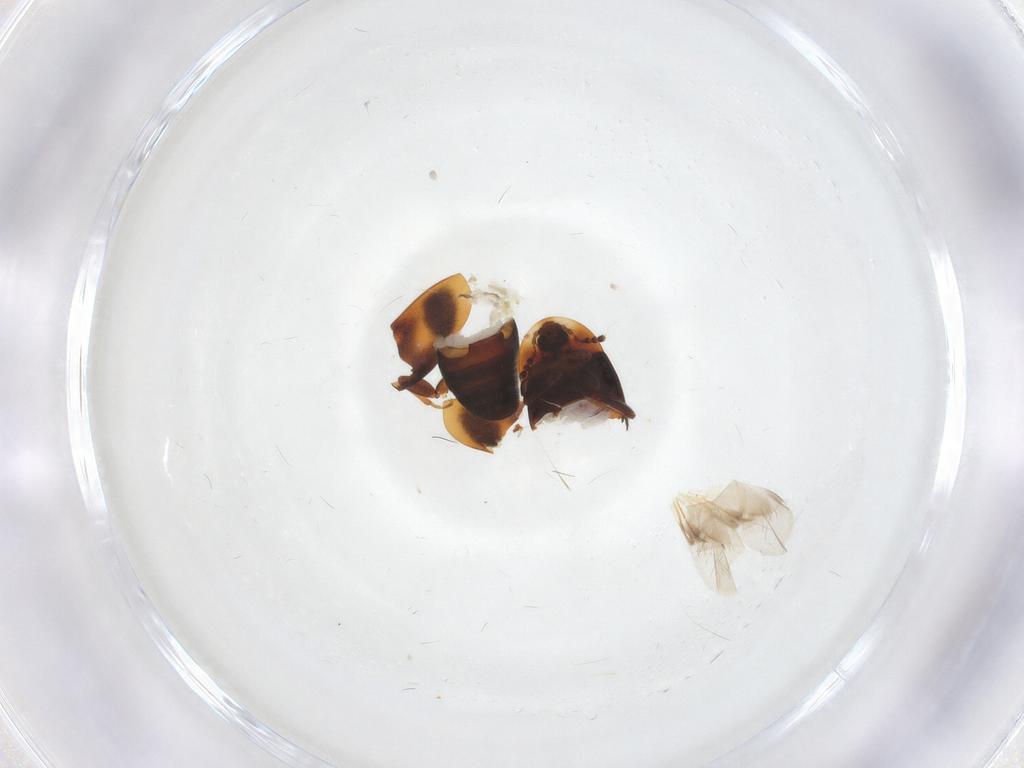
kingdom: Animalia
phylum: Arthropoda
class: Insecta
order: Coleoptera
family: Corylophidae
